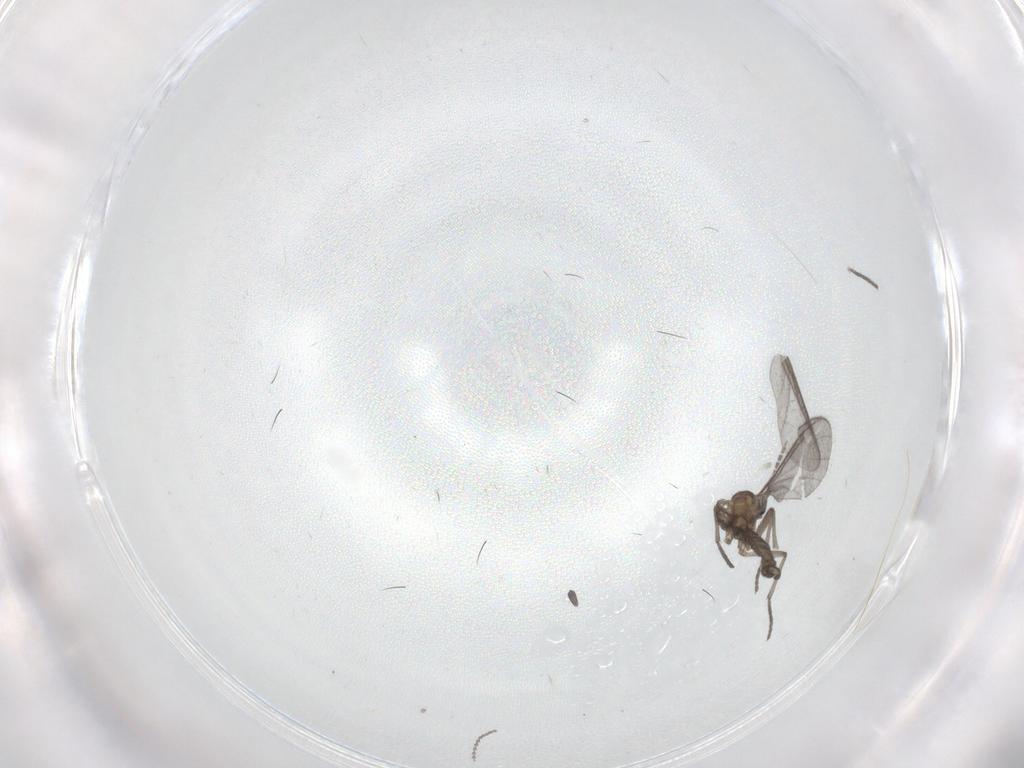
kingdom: Animalia
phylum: Arthropoda
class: Insecta
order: Diptera
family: Sciaridae
